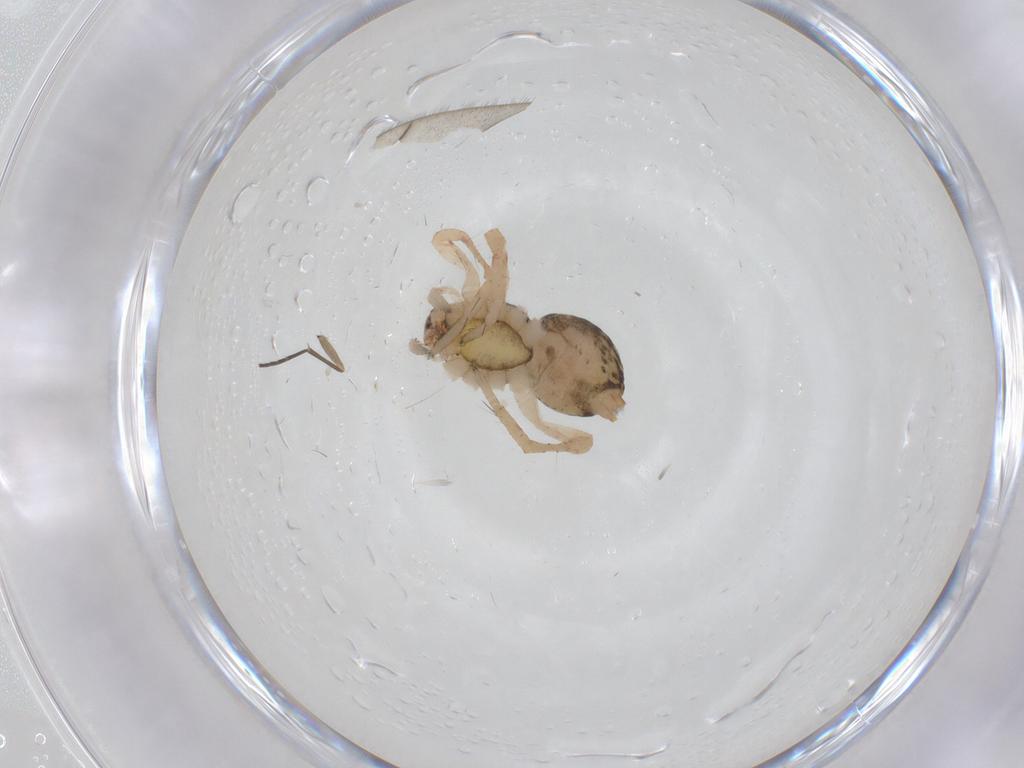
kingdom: Animalia
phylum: Arthropoda
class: Arachnida
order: Araneae
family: Anyphaenidae
